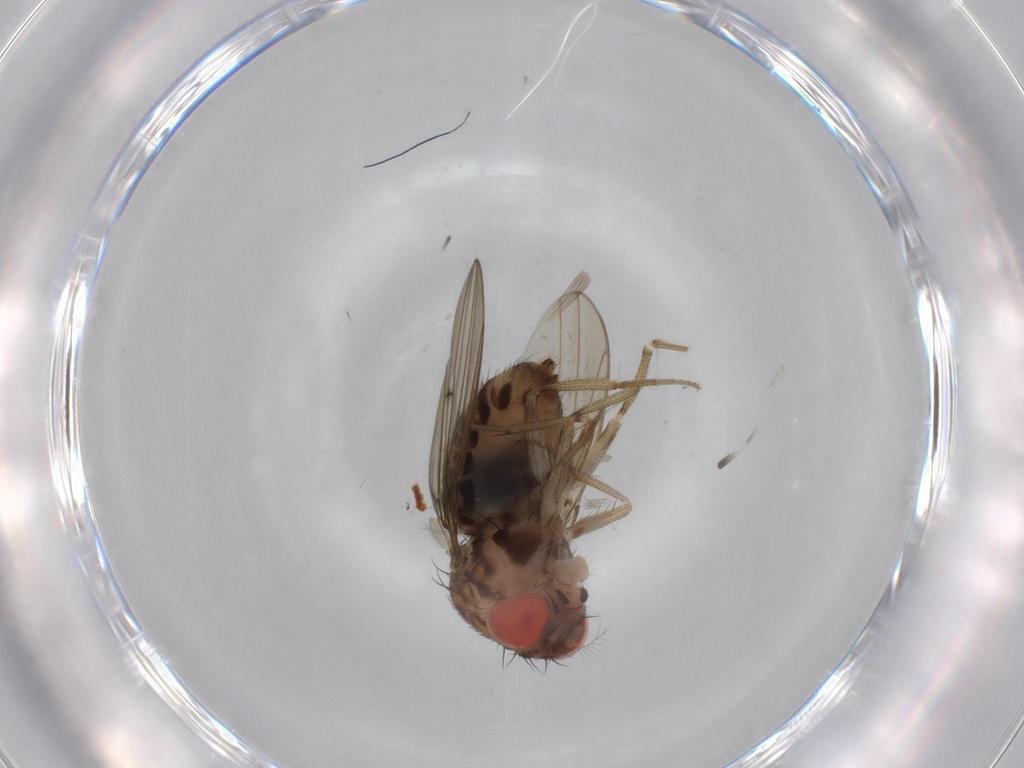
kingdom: Animalia
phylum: Arthropoda
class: Insecta
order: Diptera
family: Drosophilidae
